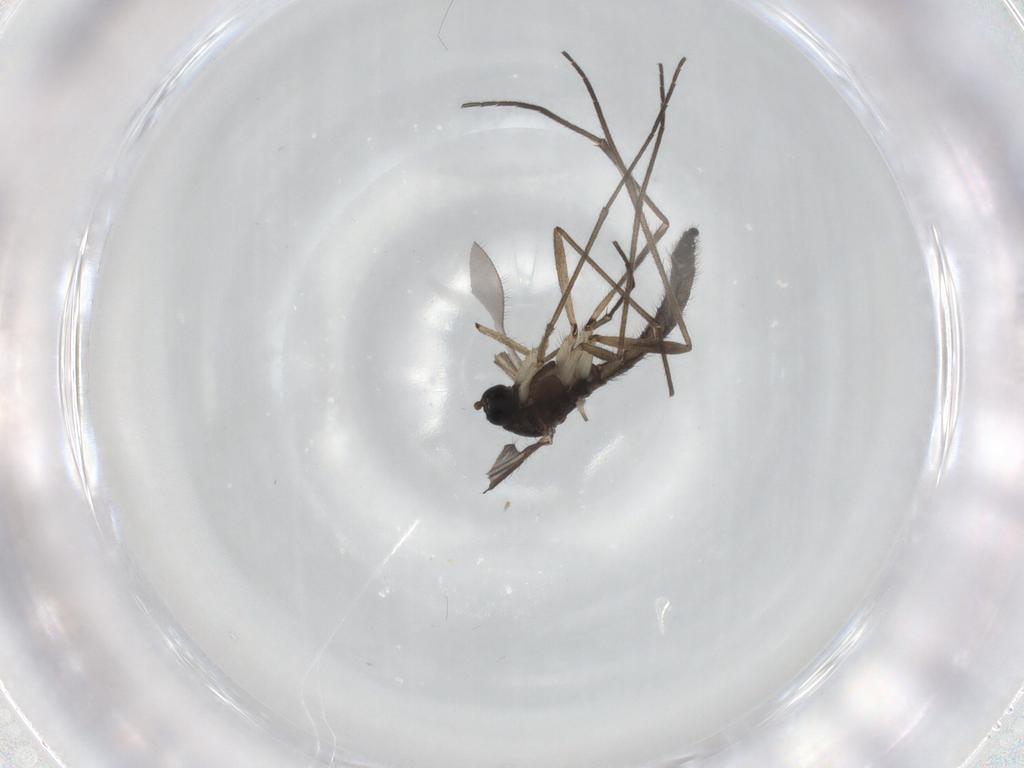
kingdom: Animalia
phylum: Arthropoda
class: Insecta
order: Diptera
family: Sciaridae
